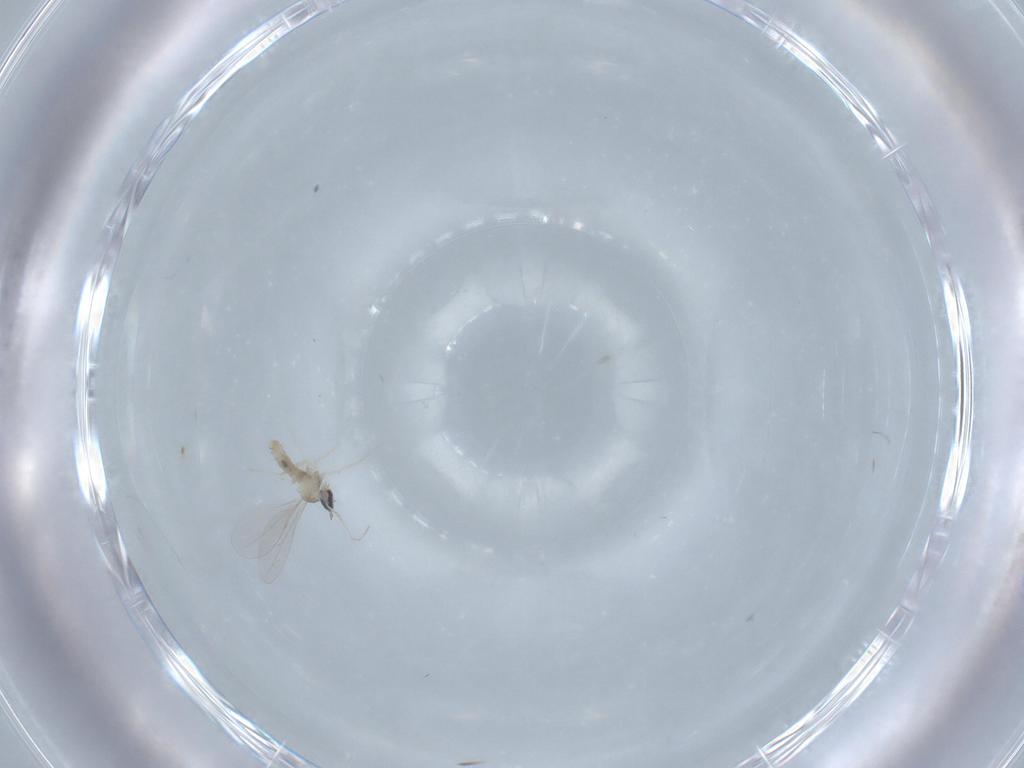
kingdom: Animalia
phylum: Arthropoda
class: Insecta
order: Diptera
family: Cecidomyiidae
